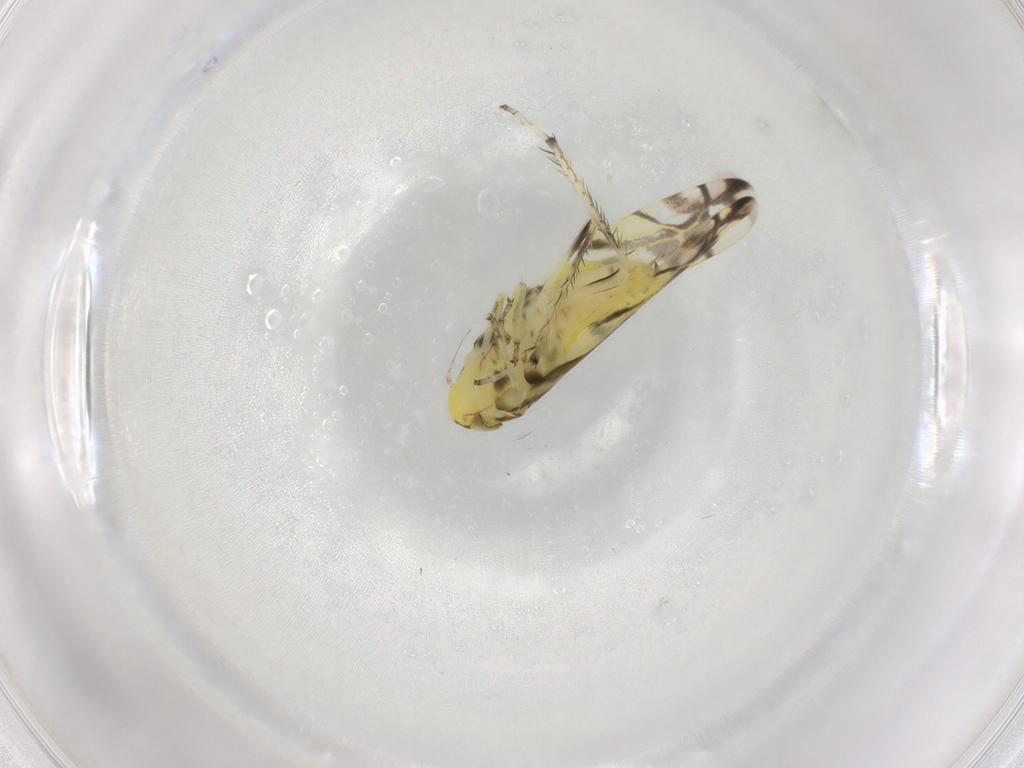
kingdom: Animalia
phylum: Arthropoda
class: Insecta
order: Hemiptera
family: Cicadellidae
